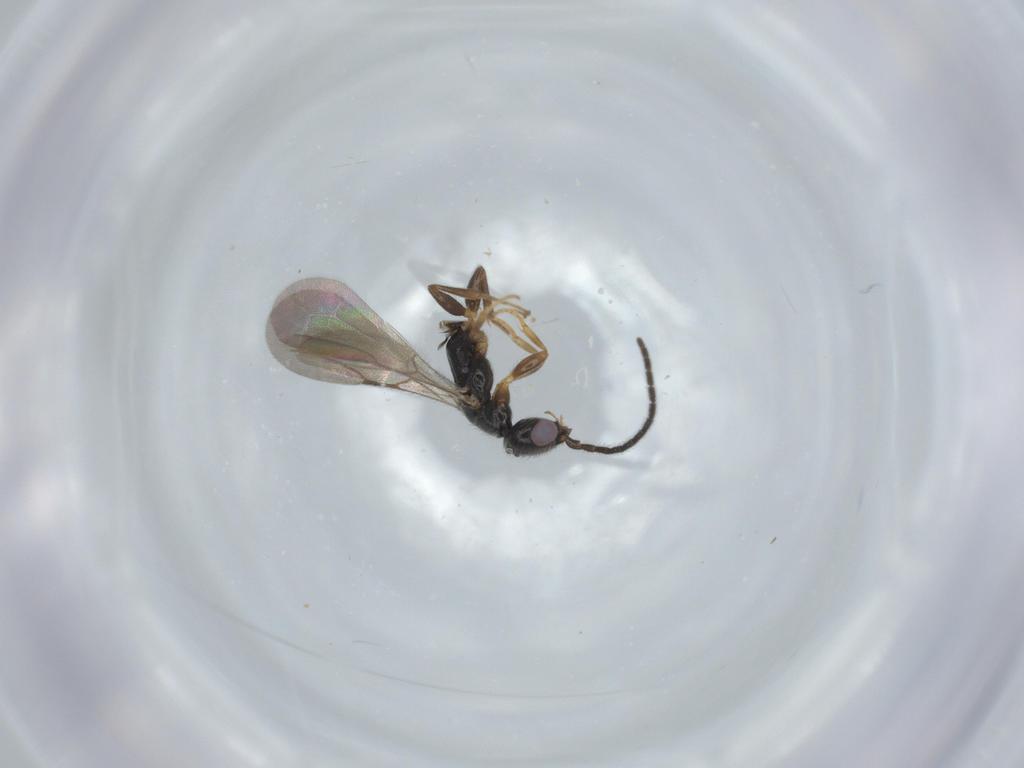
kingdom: Animalia
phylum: Arthropoda
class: Insecta
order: Hymenoptera
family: Bethylidae
